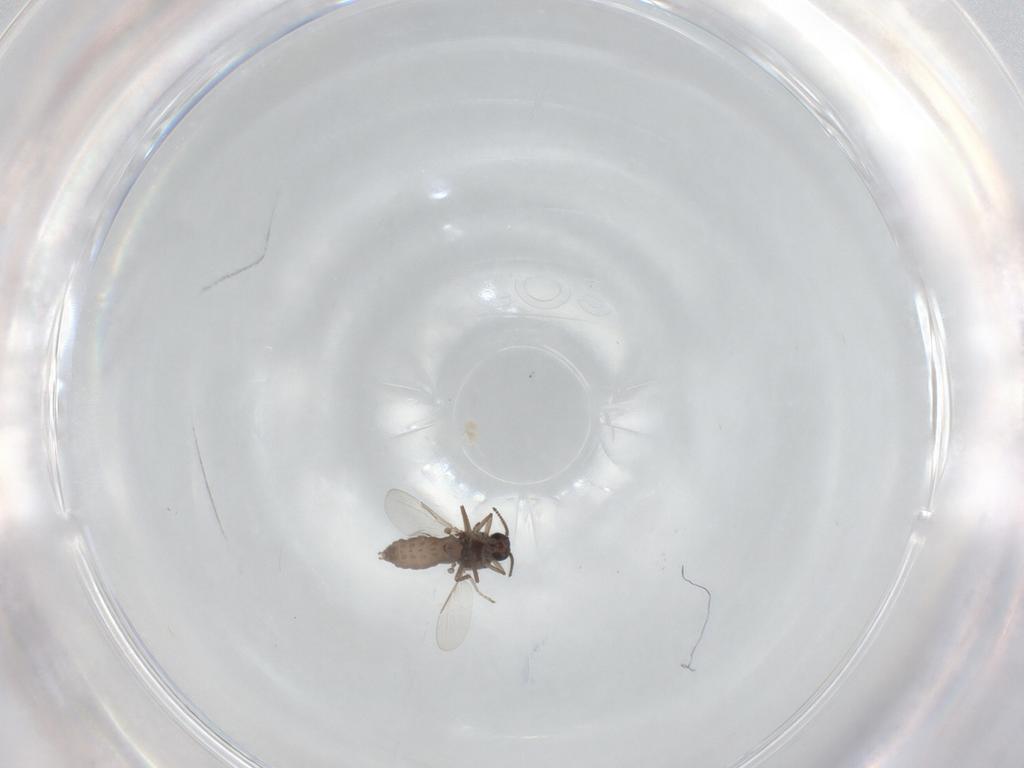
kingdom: Animalia
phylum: Arthropoda
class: Insecta
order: Diptera
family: Ceratopogonidae
